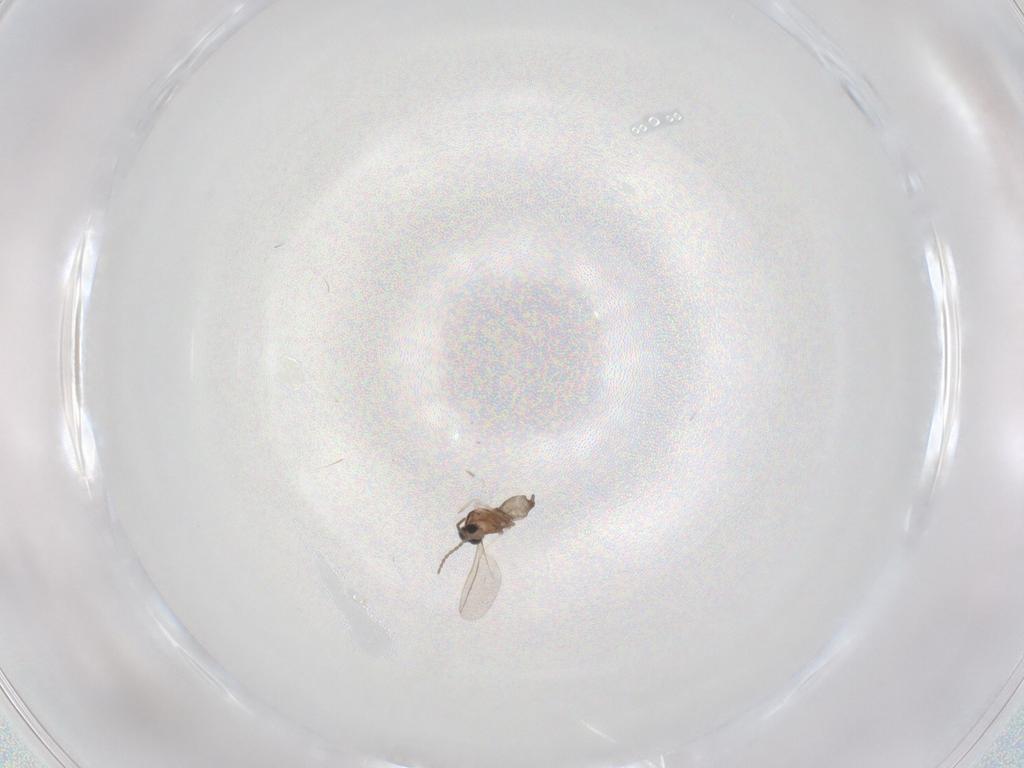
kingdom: Animalia
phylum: Arthropoda
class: Insecta
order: Diptera
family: Cecidomyiidae
